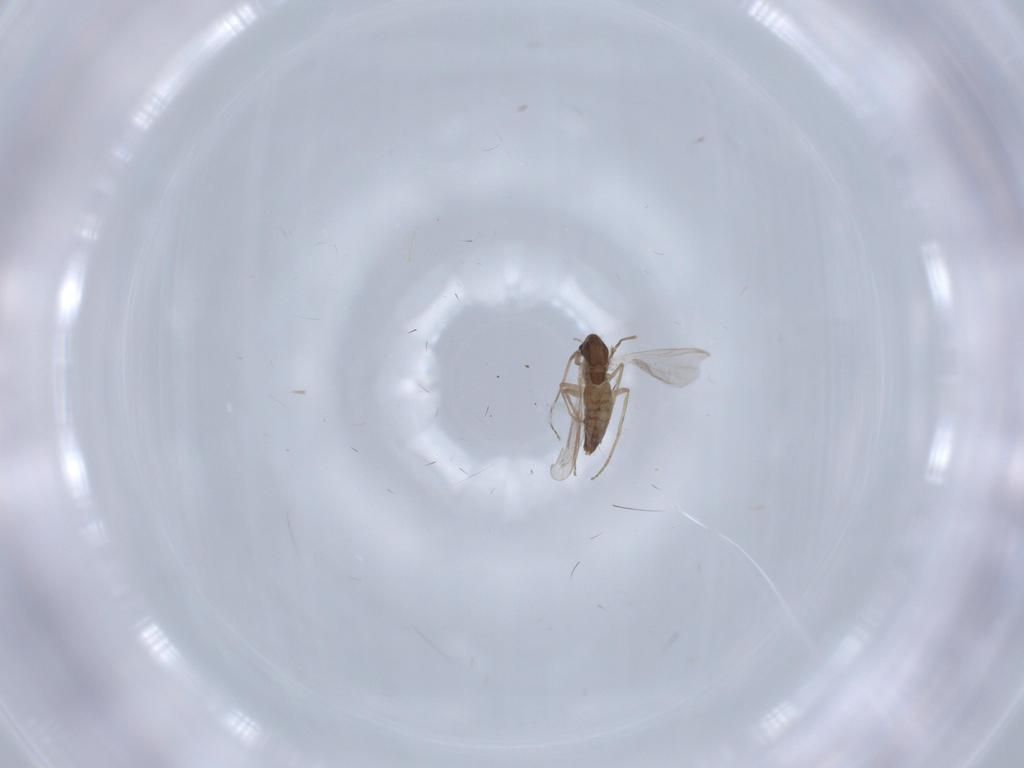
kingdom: Animalia
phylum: Arthropoda
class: Insecta
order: Diptera
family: Chironomidae
